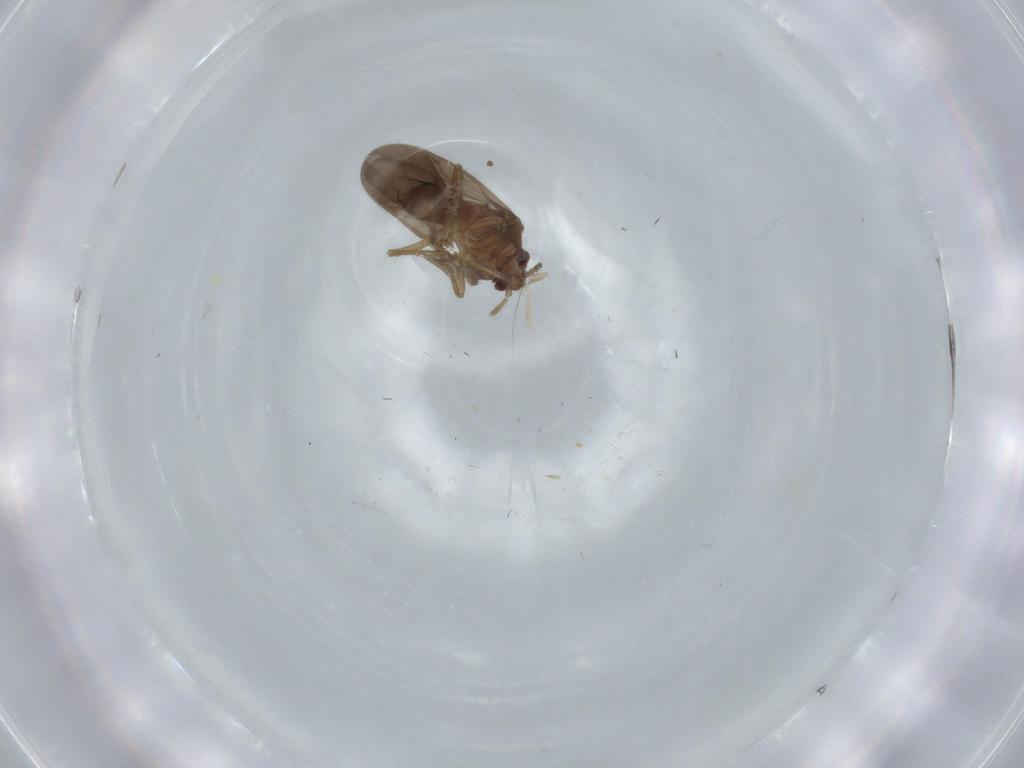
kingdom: Animalia
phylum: Arthropoda
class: Insecta
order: Hemiptera
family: Ceratocombidae
